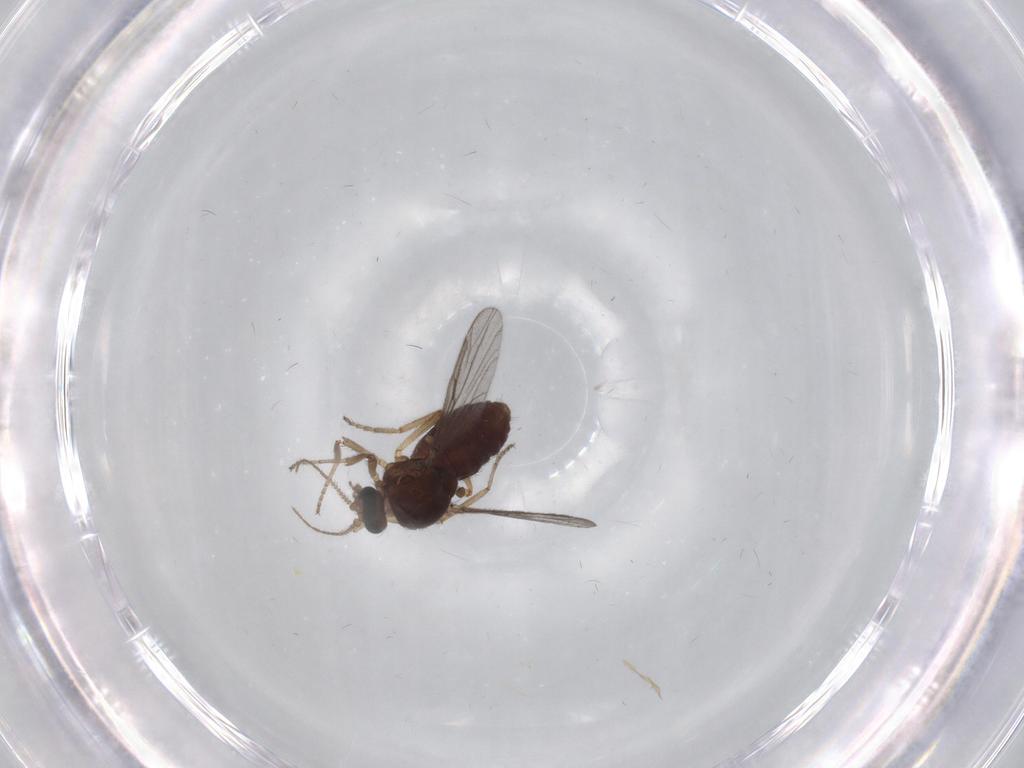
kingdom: Animalia
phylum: Arthropoda
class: Insecta
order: Diptera
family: Ceratopogonidae
